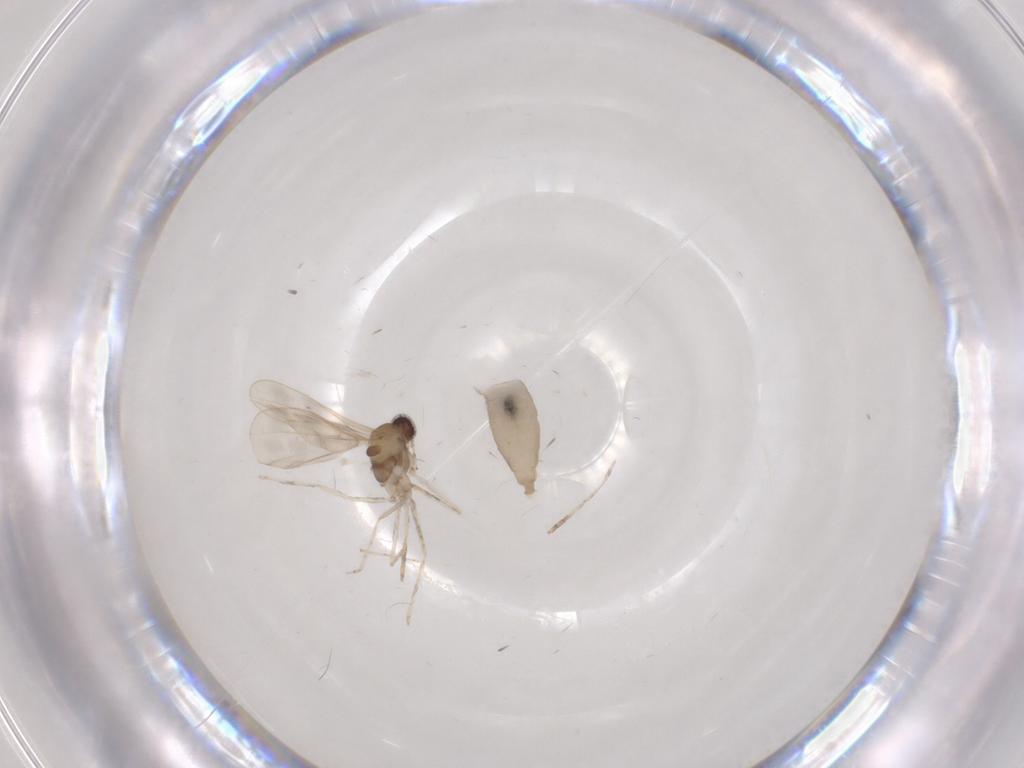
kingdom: Animalia
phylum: Arthropoda
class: Insecta
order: Diptera
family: Cecidomyiidae
